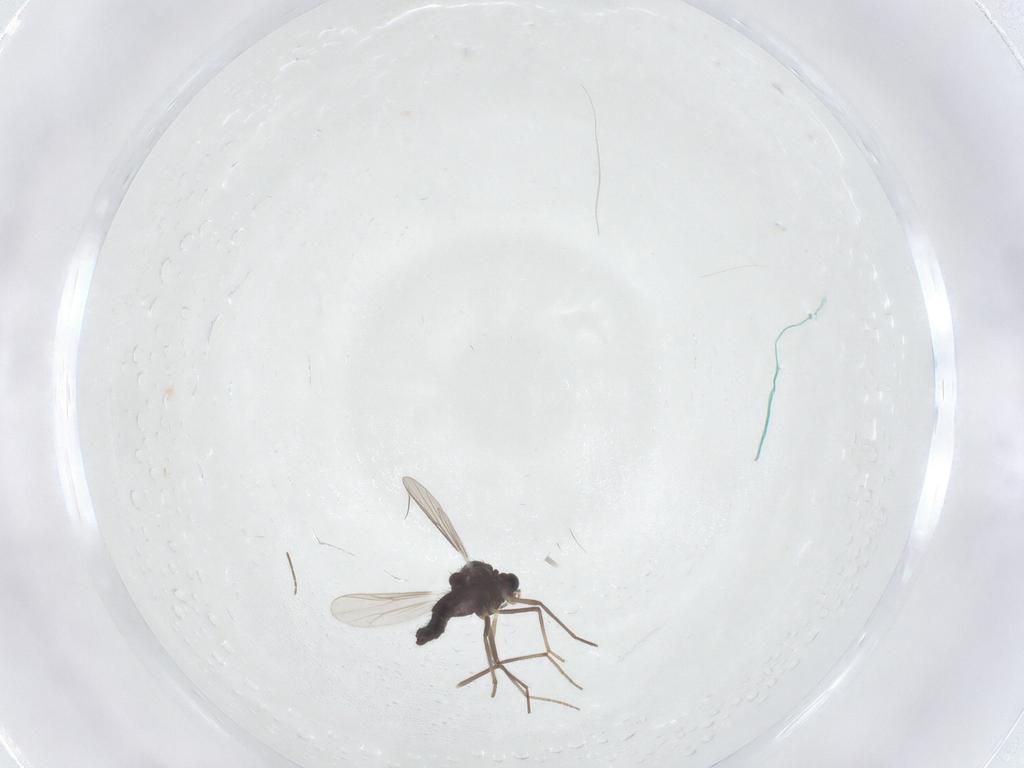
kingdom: Animalia
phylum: Arthropoda
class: Insecta
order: Diptera
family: Chironomidae
